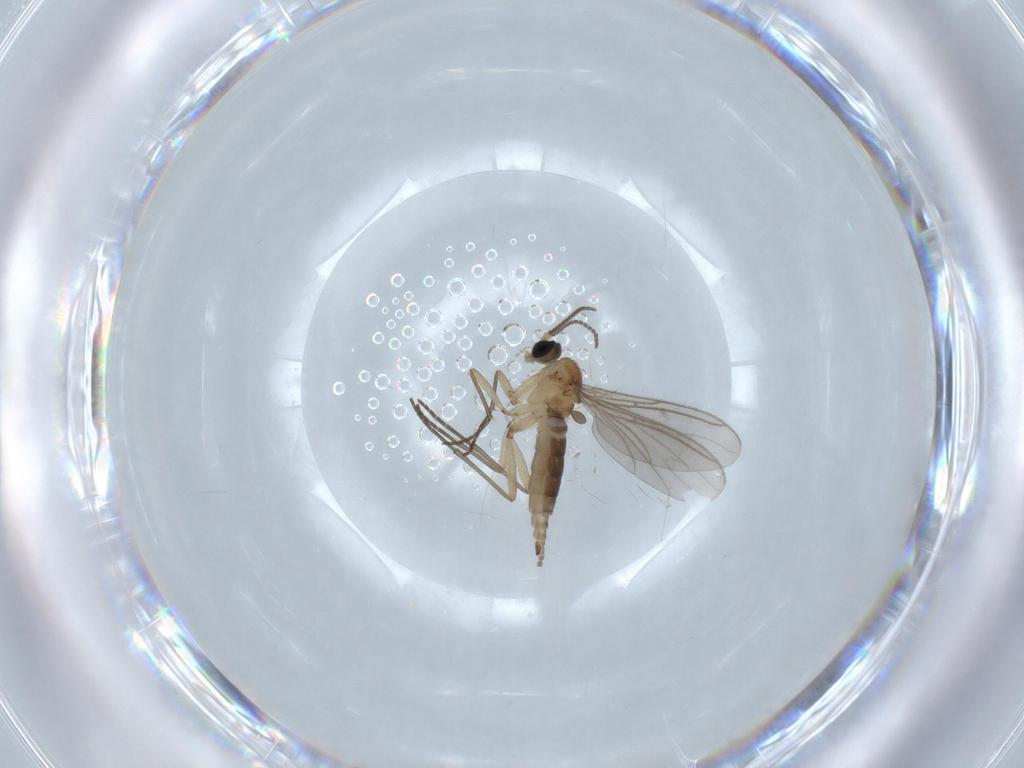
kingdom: Animalia
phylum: Arthropoda
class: Insecta
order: Diptera
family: Sciaridae
